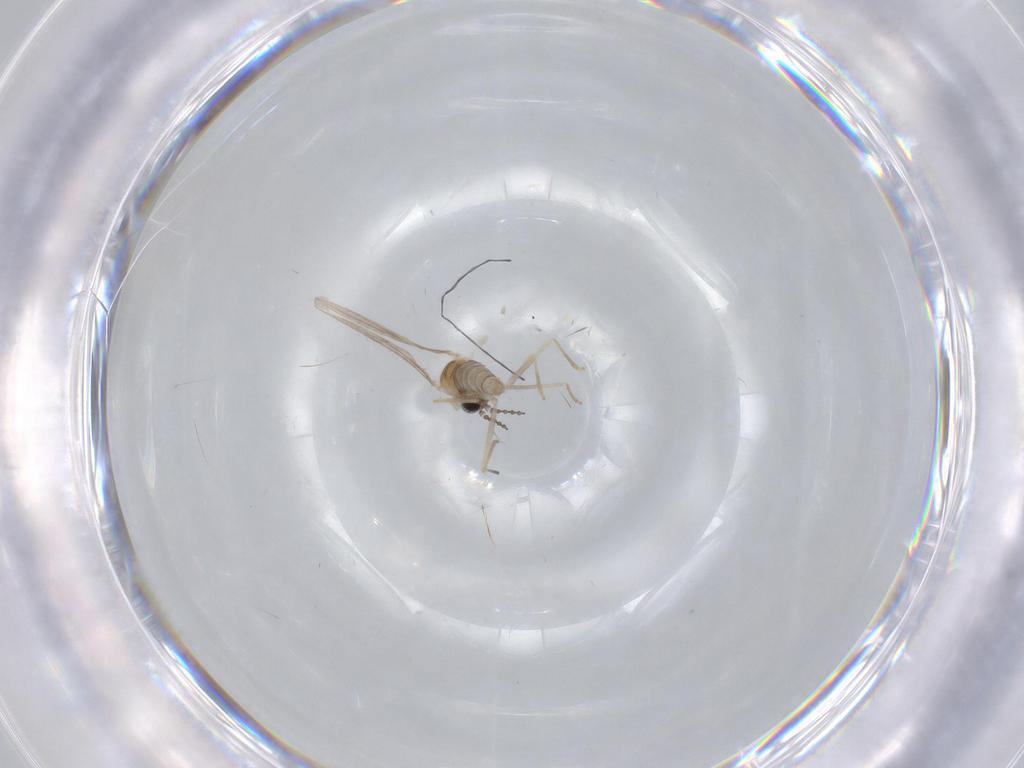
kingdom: Animalia
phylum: Arthropoda
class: Insecta
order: Diptera
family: Cecidomyiidae
